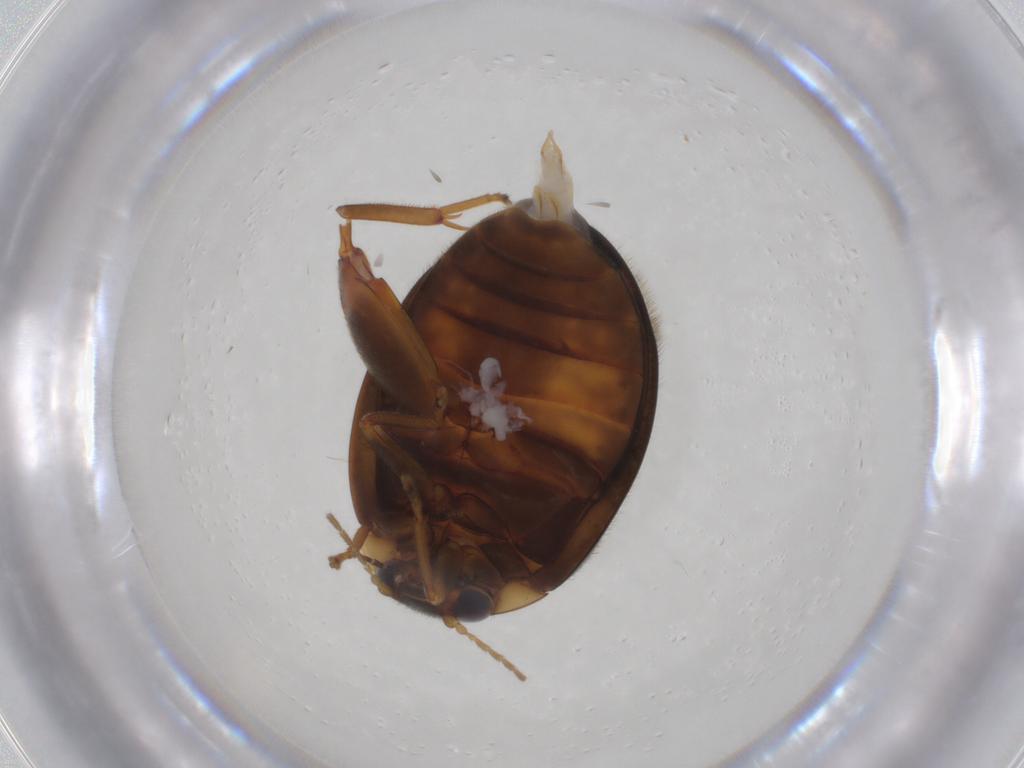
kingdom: Animalia
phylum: Arthropoda
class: Insecta
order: Coleoptera
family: Scirtidae
